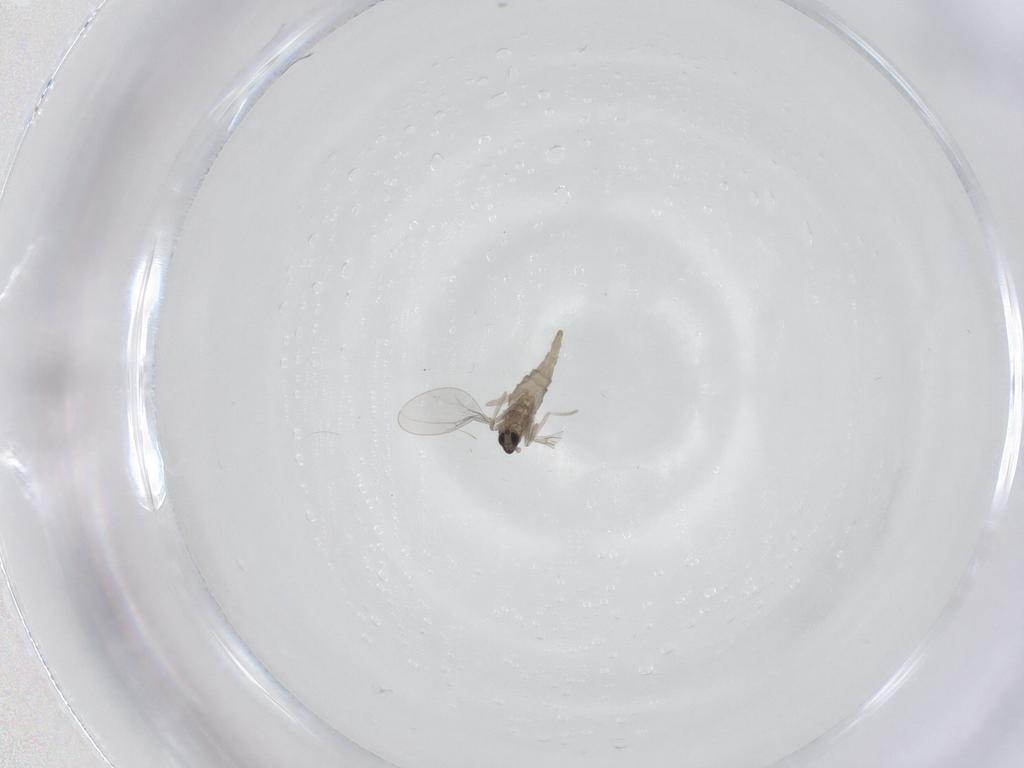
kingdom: Animalia
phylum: Arthropoda
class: Insecta
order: Diptera
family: Cecidomyiidae
